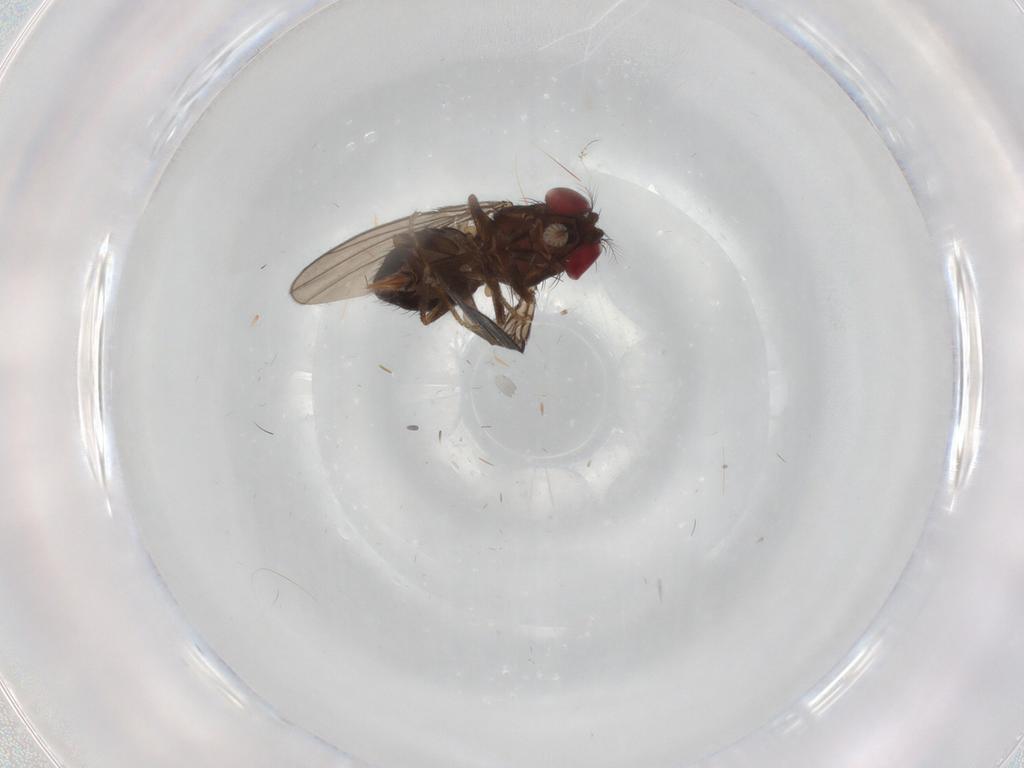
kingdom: Animalia
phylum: Arthropoda
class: Insecta
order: Diptera
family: Drosophilidae
